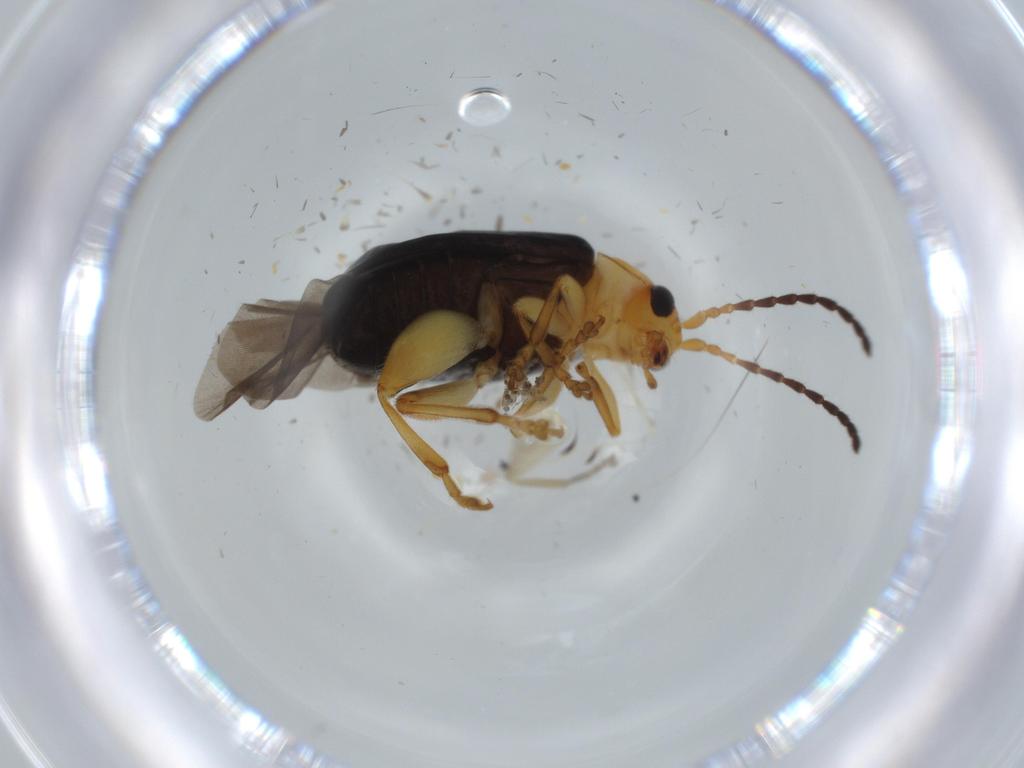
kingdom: Animalia
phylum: Arthropoda
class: Insecta
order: Coleoptera
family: Chrysomelidae
